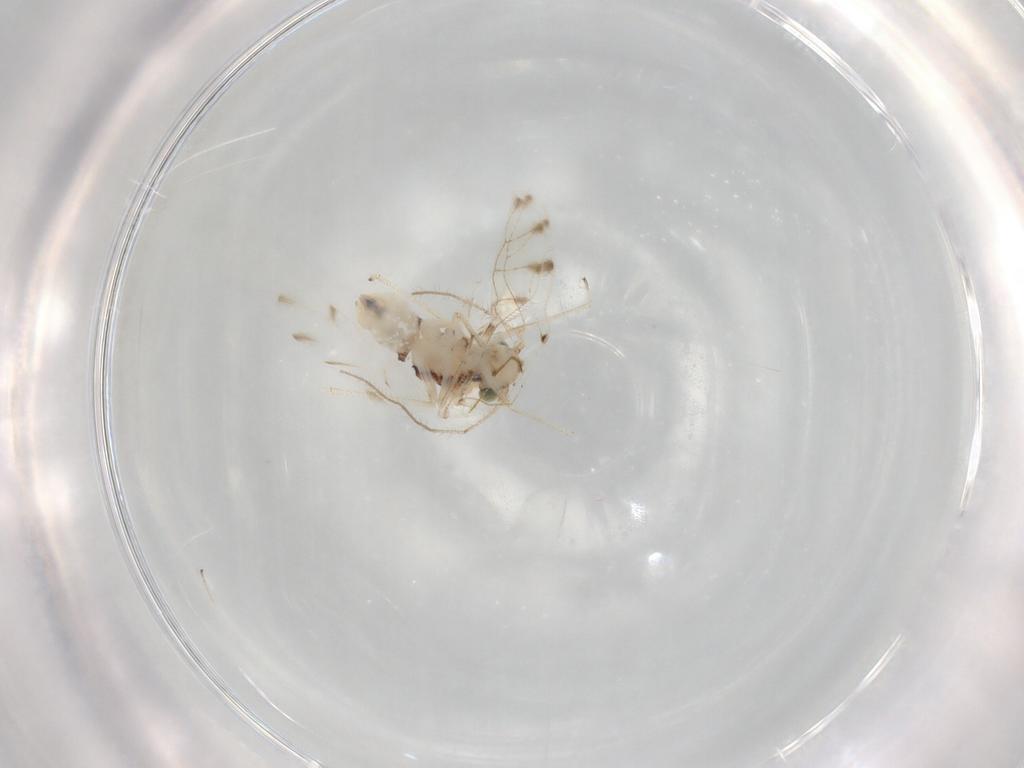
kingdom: Animalia
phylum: Arthropoda
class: Insecta
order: Psocodea
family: Ectopsocidae
